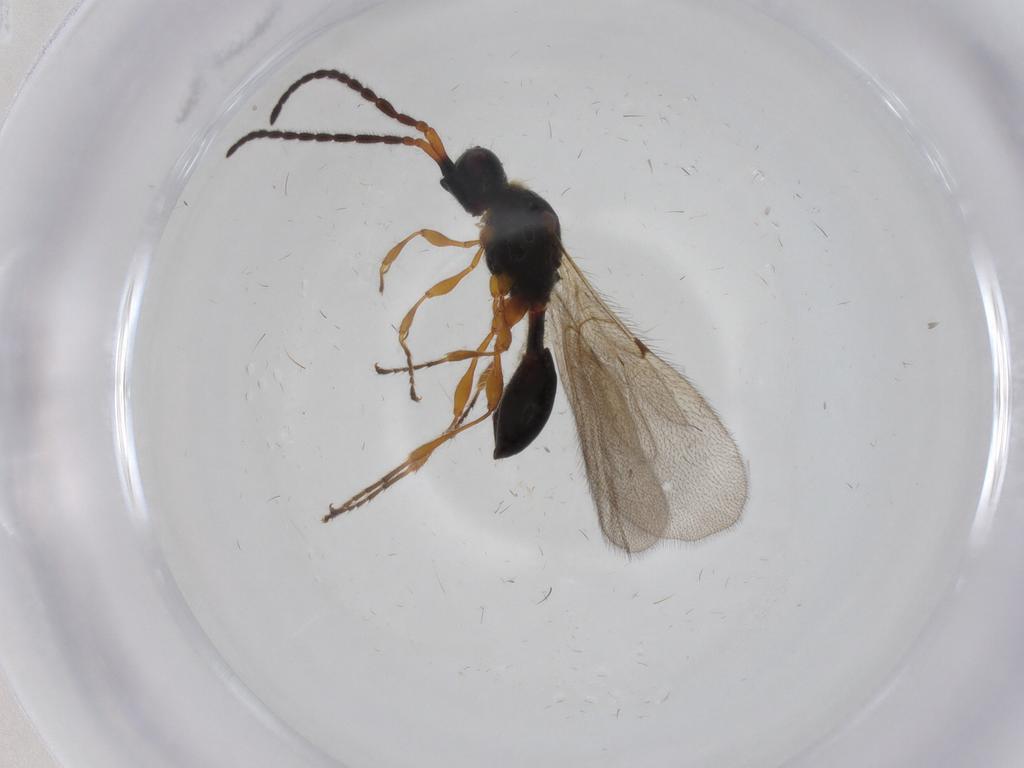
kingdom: Animalia
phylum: Arthropoda
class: Insecta
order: Hymenoptera
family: Diapriidae
